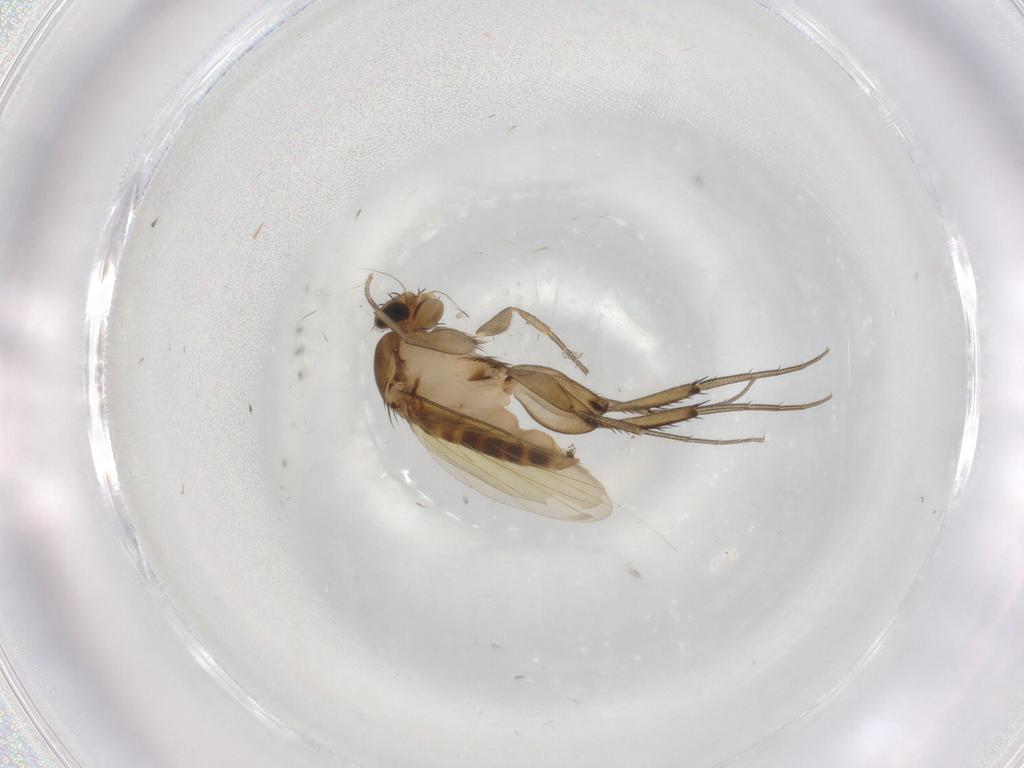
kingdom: Animalia
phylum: Arthropoda
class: Insecta
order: Diptera
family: Phoridae
